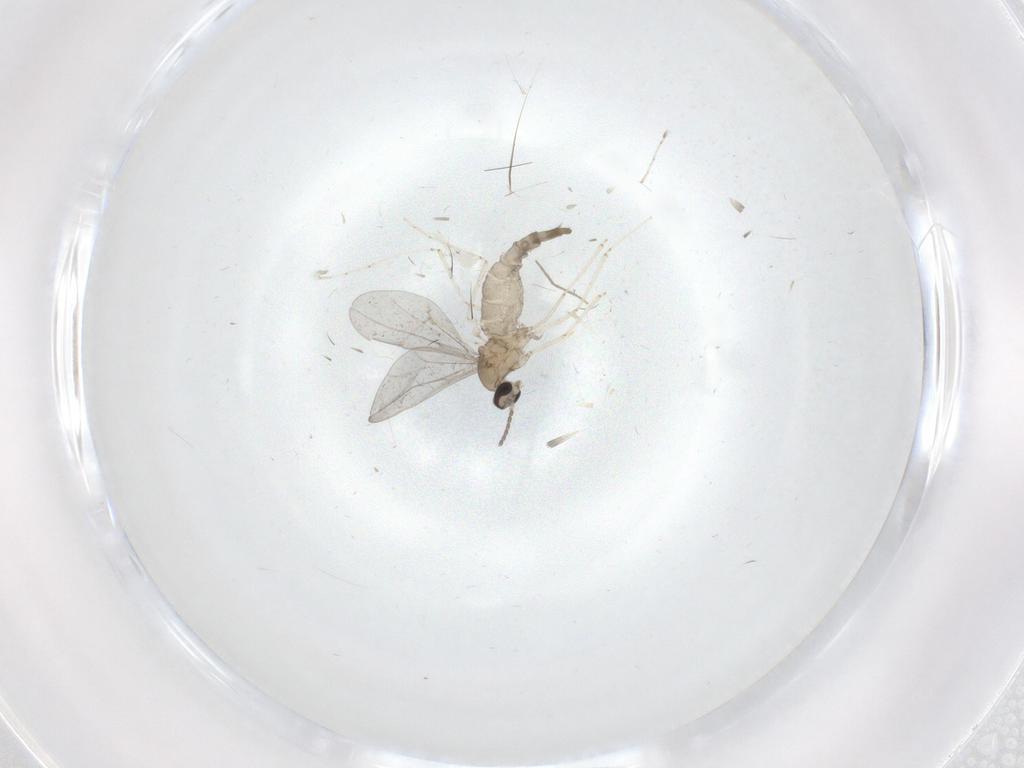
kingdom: Animalia
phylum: Arthropoda
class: Insecta
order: Diptera
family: Cecidomyiidae
